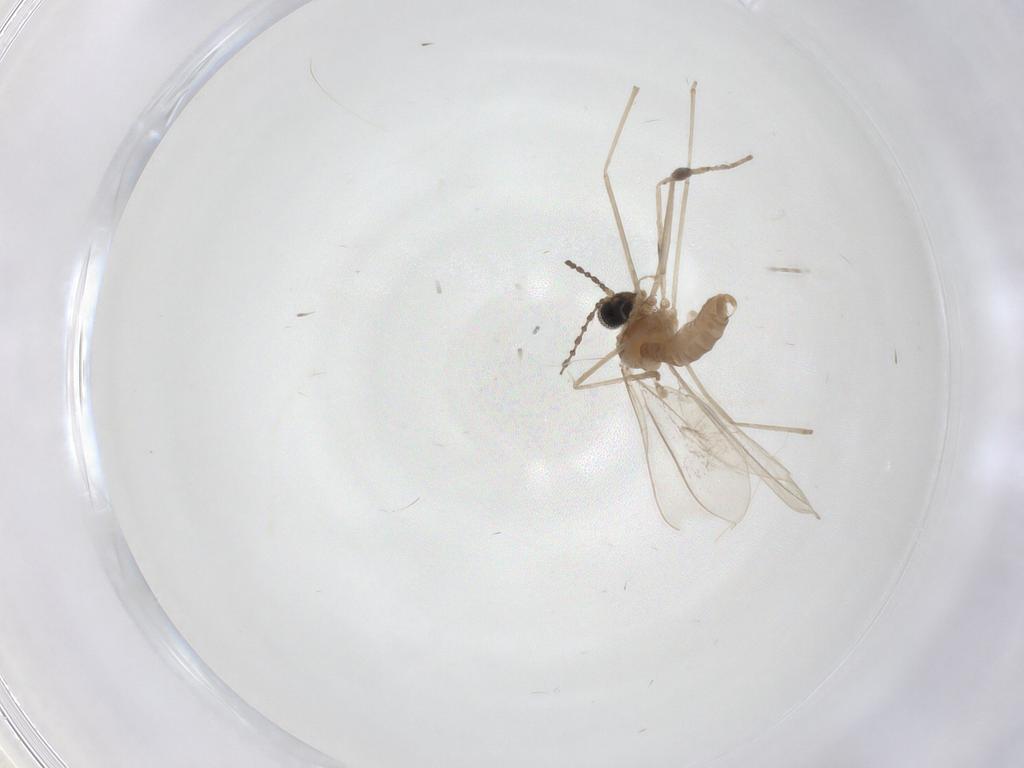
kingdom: Animalia
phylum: Arthropoda
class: Insecta
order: Diptera
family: Cecidomyiidae
